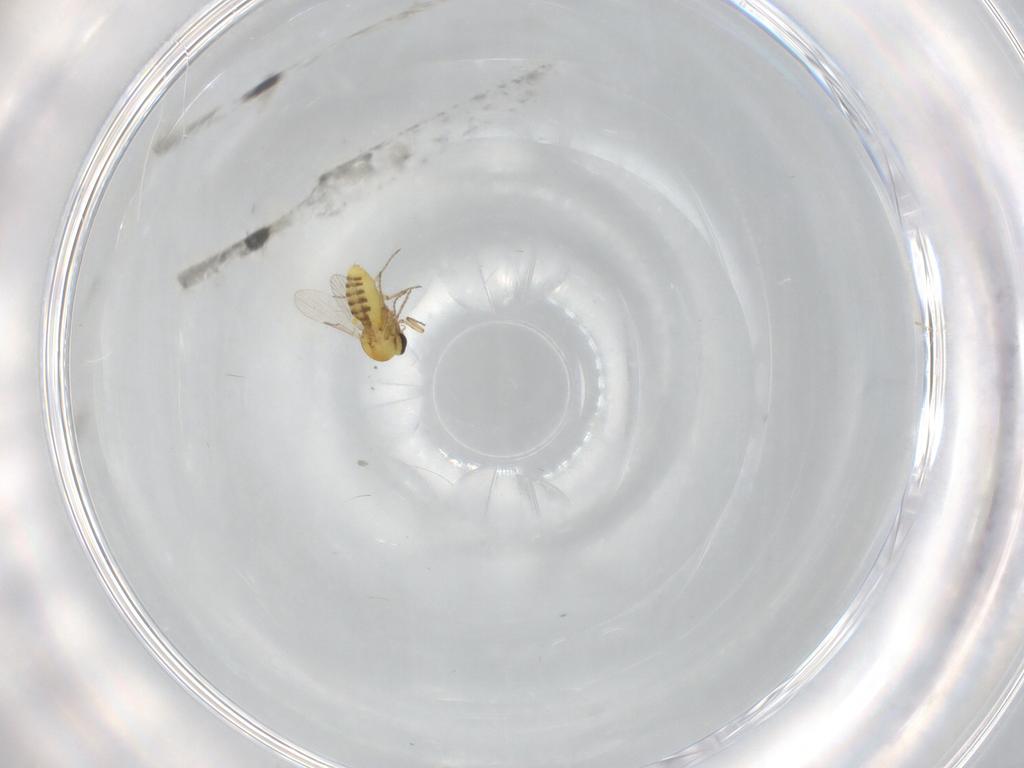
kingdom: Animalia
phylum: Arthropoda
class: Insecta
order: Diptera
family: Ceratopogonidae
